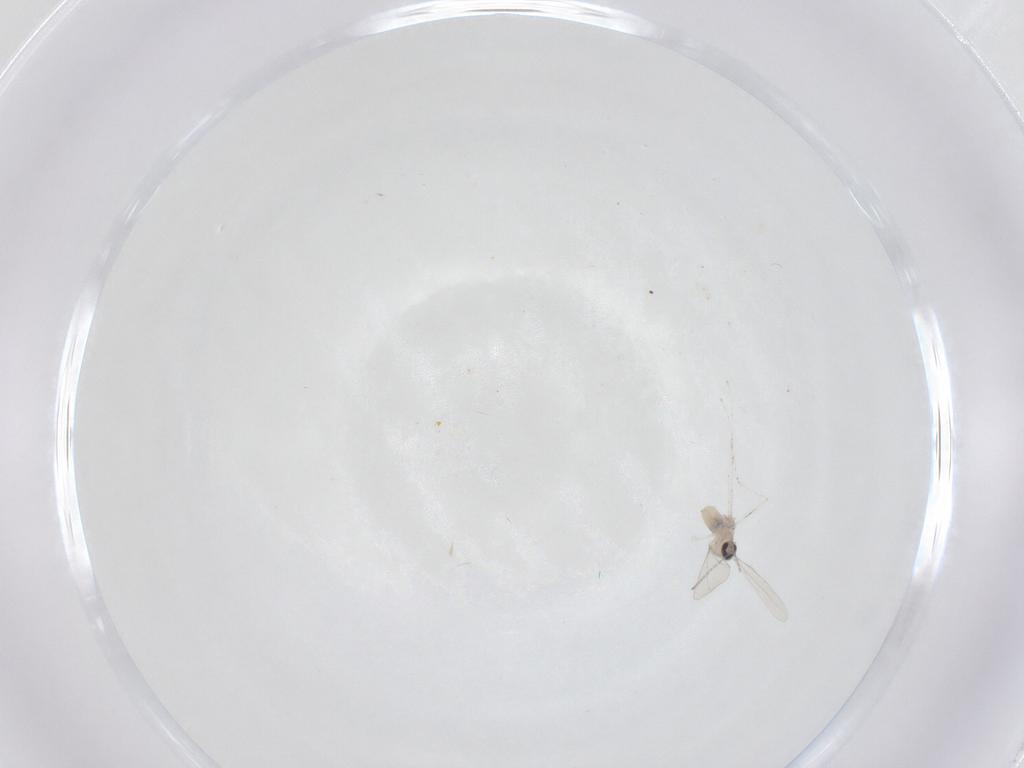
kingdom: Animalia
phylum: Arthropoda
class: Insecta
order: Diptera
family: Cecidomyiidae
